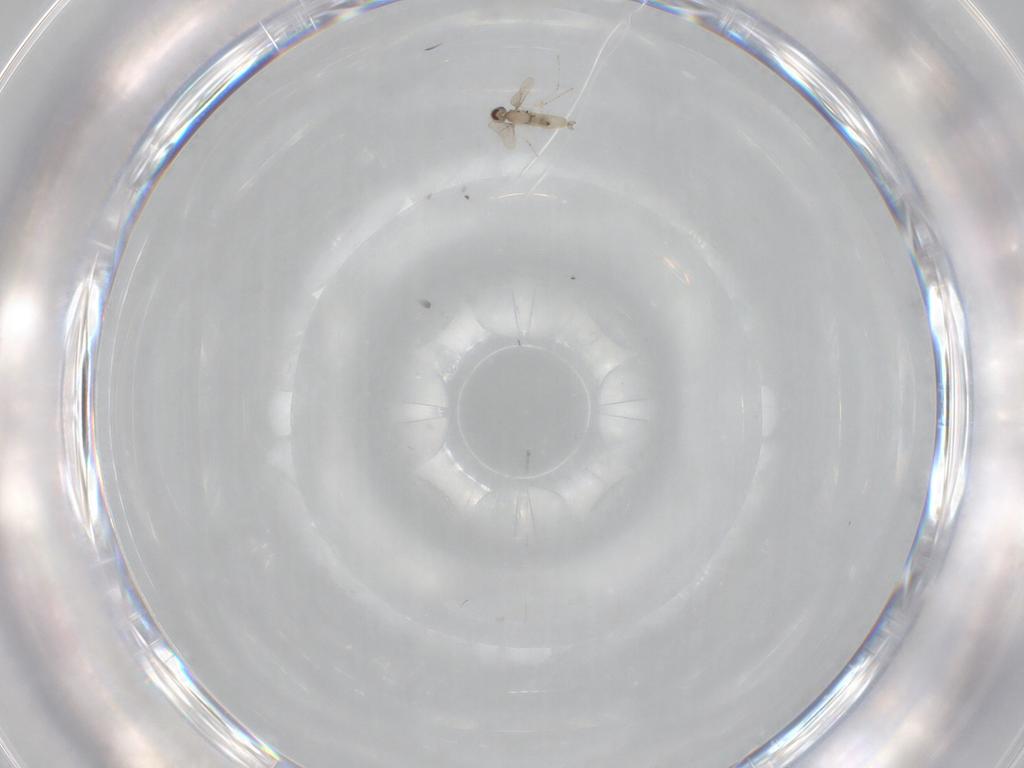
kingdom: Animalia
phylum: Arthropoda
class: Insecta
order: Diptera
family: Cecidomyiidae
